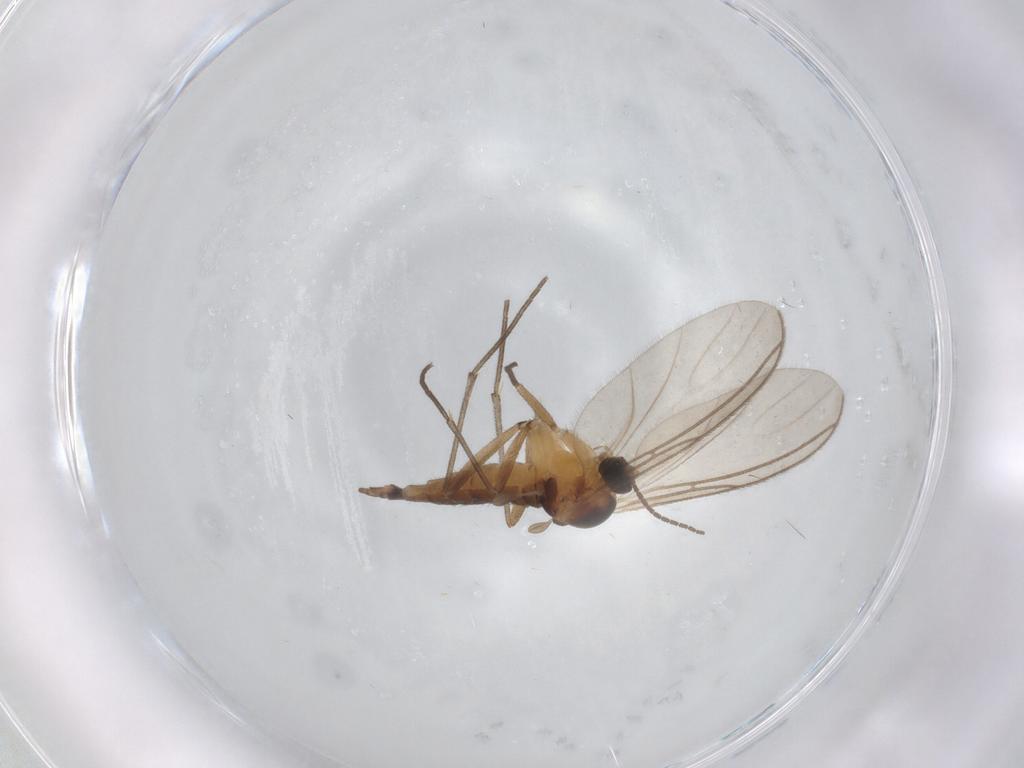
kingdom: Animalia
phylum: Arthropoda
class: Insecta
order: Diptera
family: Sciaridae
